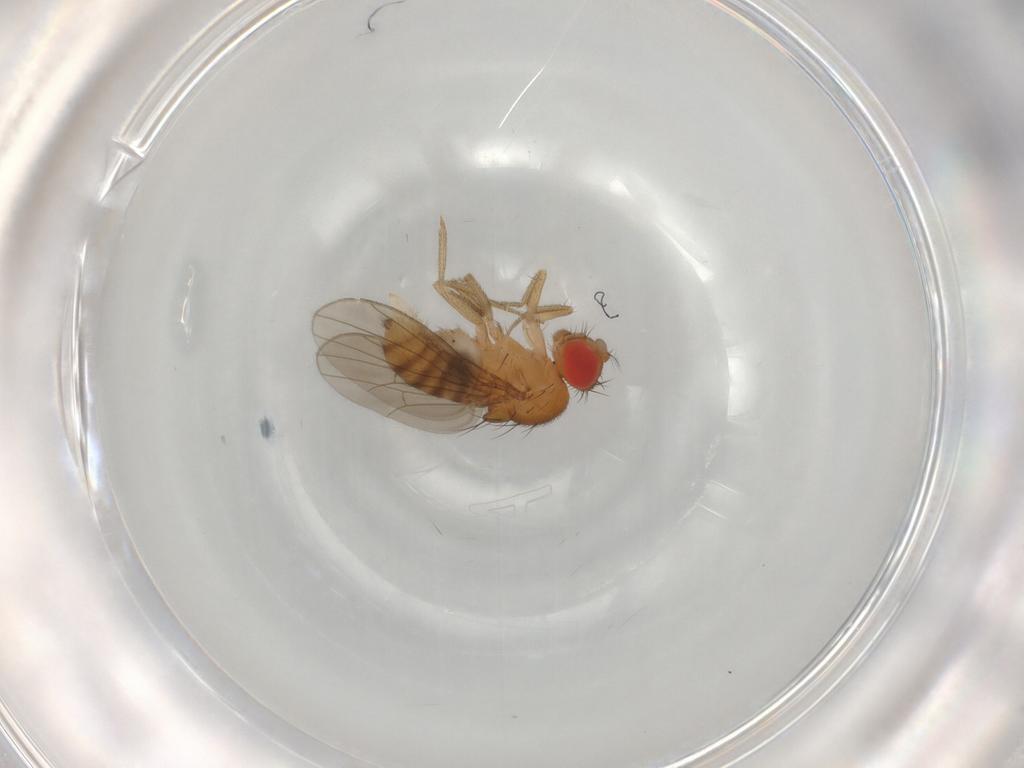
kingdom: Animalia
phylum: Arthropoda
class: Insecta
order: Diptera
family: Drosophilidae
